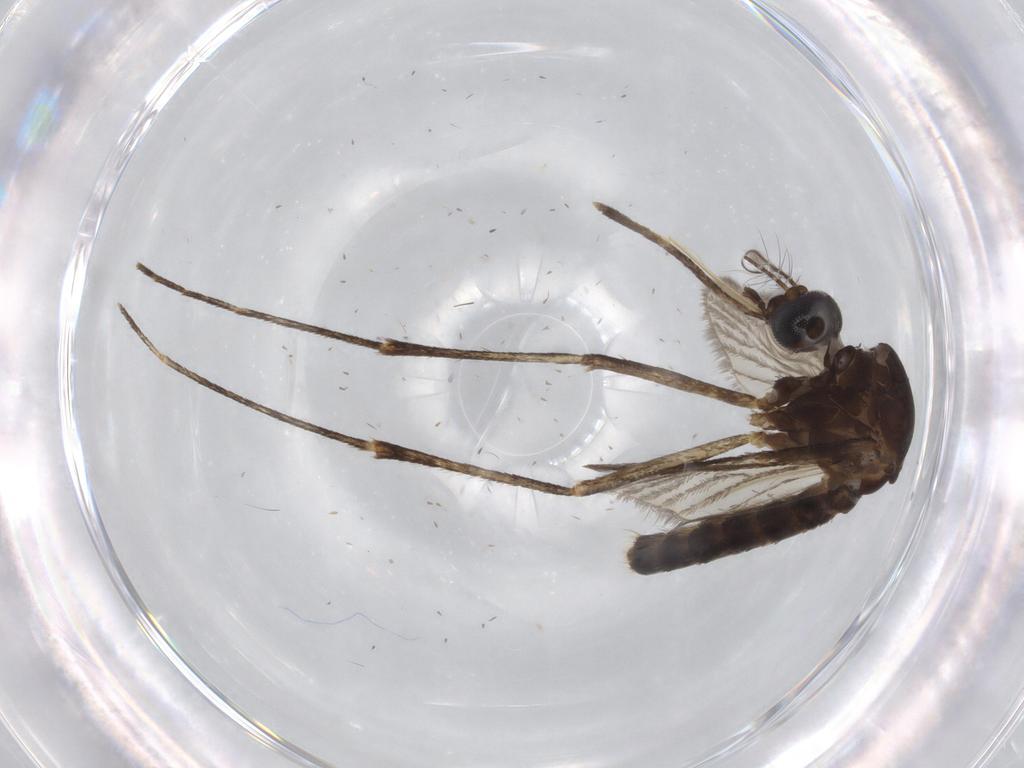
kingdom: Animalia
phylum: Arthropoda
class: Insecta
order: Diptera
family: Cecidomyiidae
